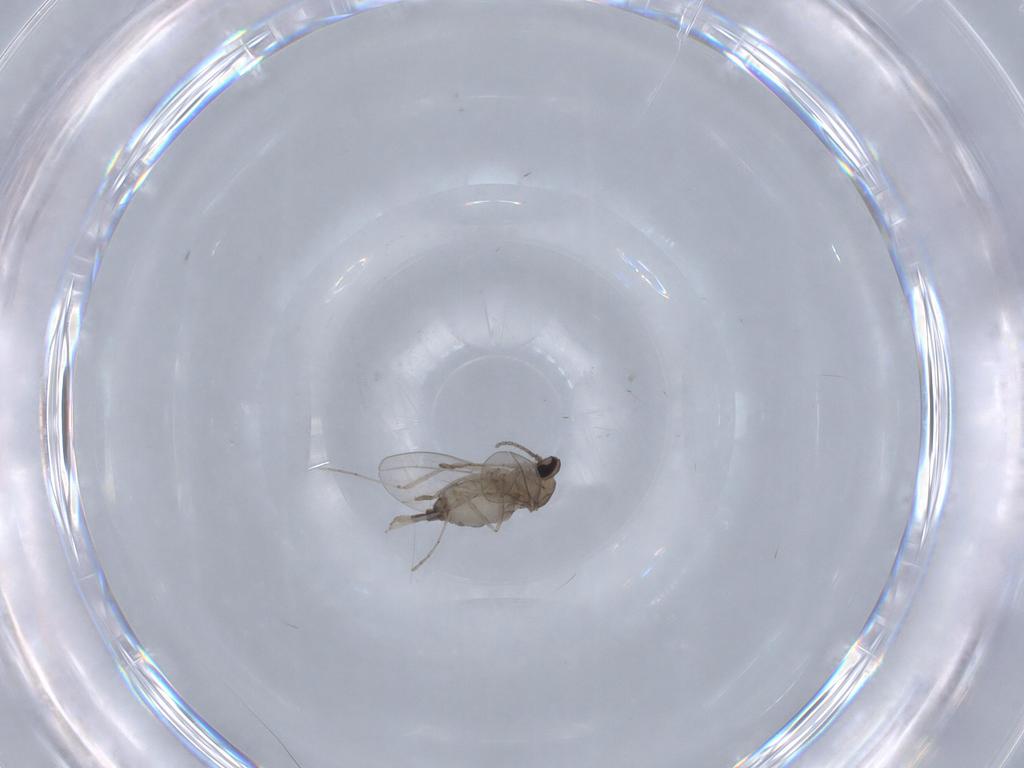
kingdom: Animalia
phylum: Arthropoda
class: Insecta
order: Diptera
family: Cecidomyiidae
